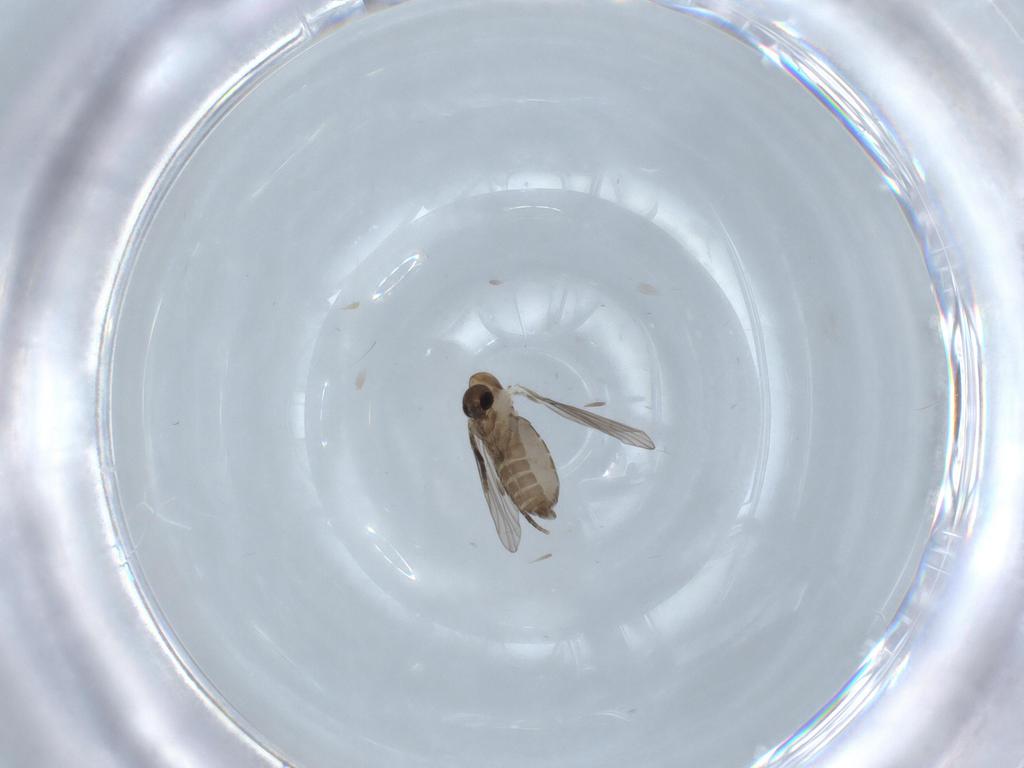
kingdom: Animalia
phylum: Arthropoda
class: Insecta
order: Diptera
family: Psychodidae
